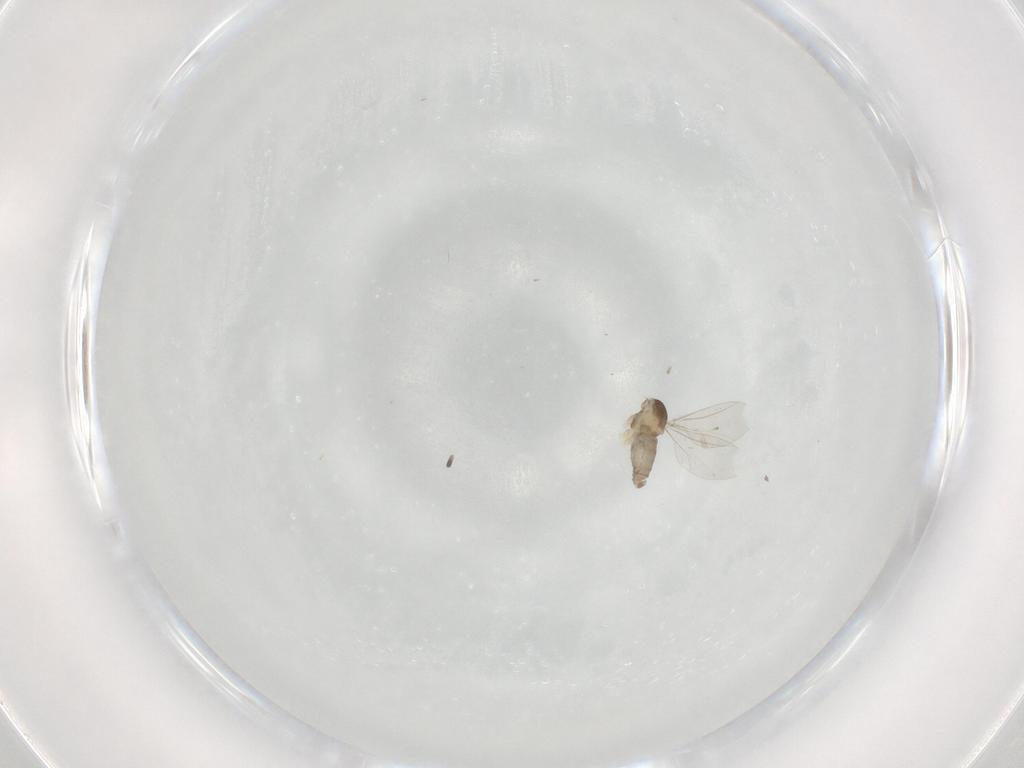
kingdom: Animalia
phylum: Arthropoda
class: Insecta
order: Diptera
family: Cecidomyiidae
